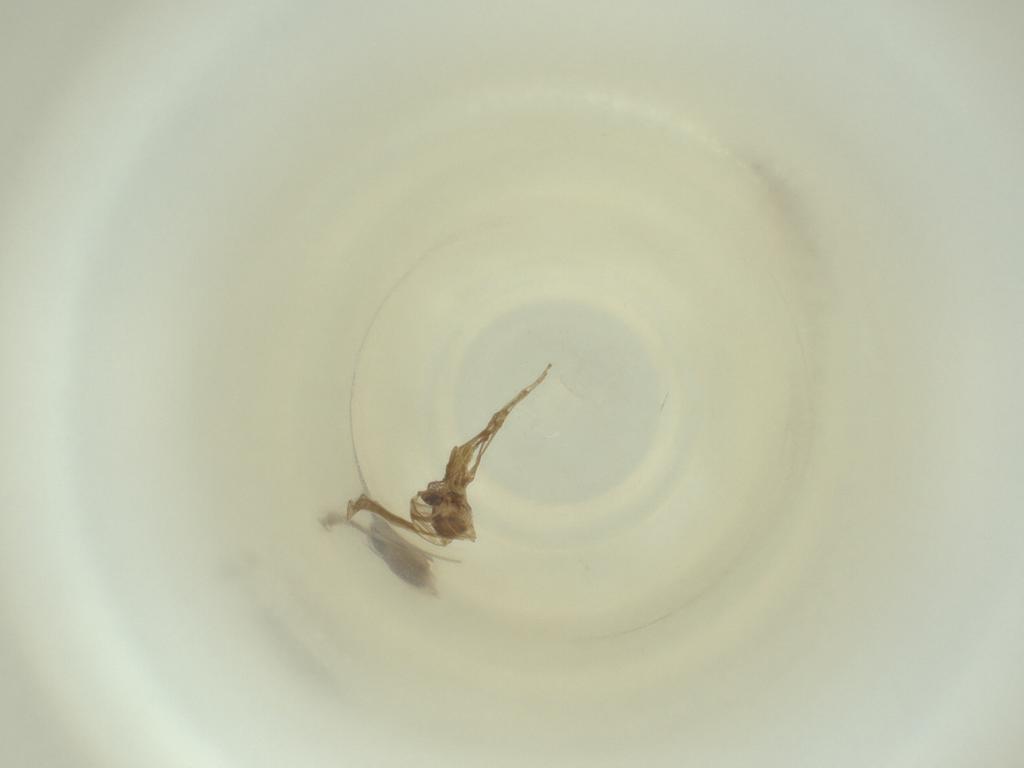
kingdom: Animalia
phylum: Arthropoda
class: Insecta
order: Diptera
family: Cecidomyiidae
